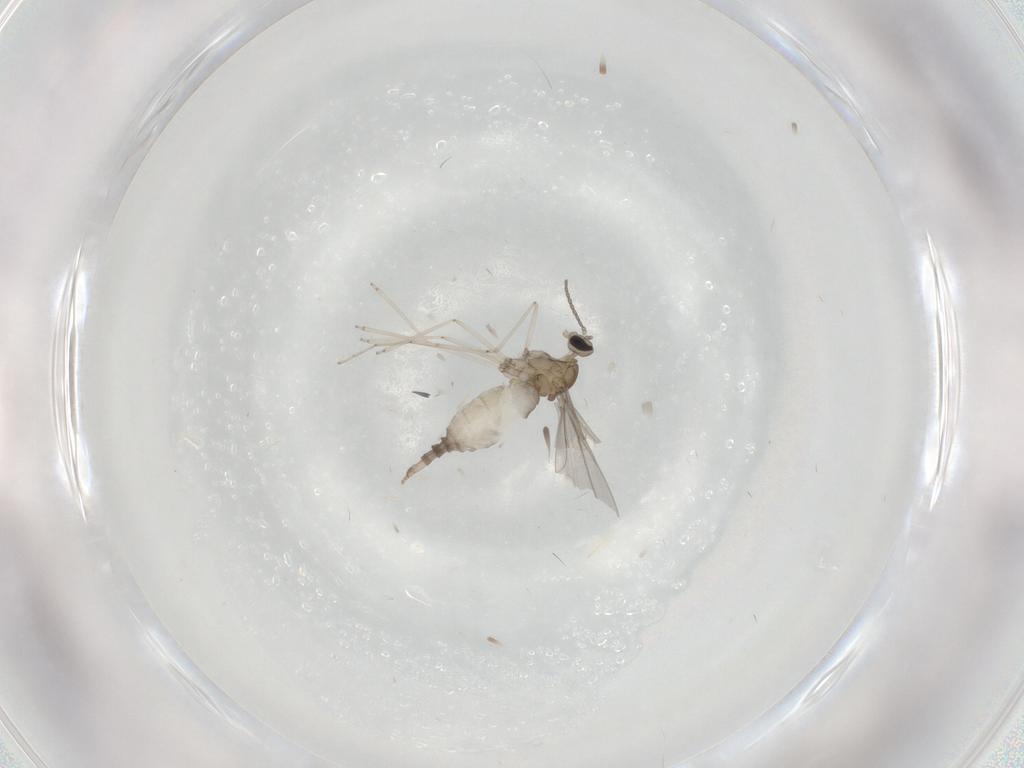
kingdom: Animalia
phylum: Arthropoda
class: Insecta
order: Diptera
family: Cecidomyiidae
